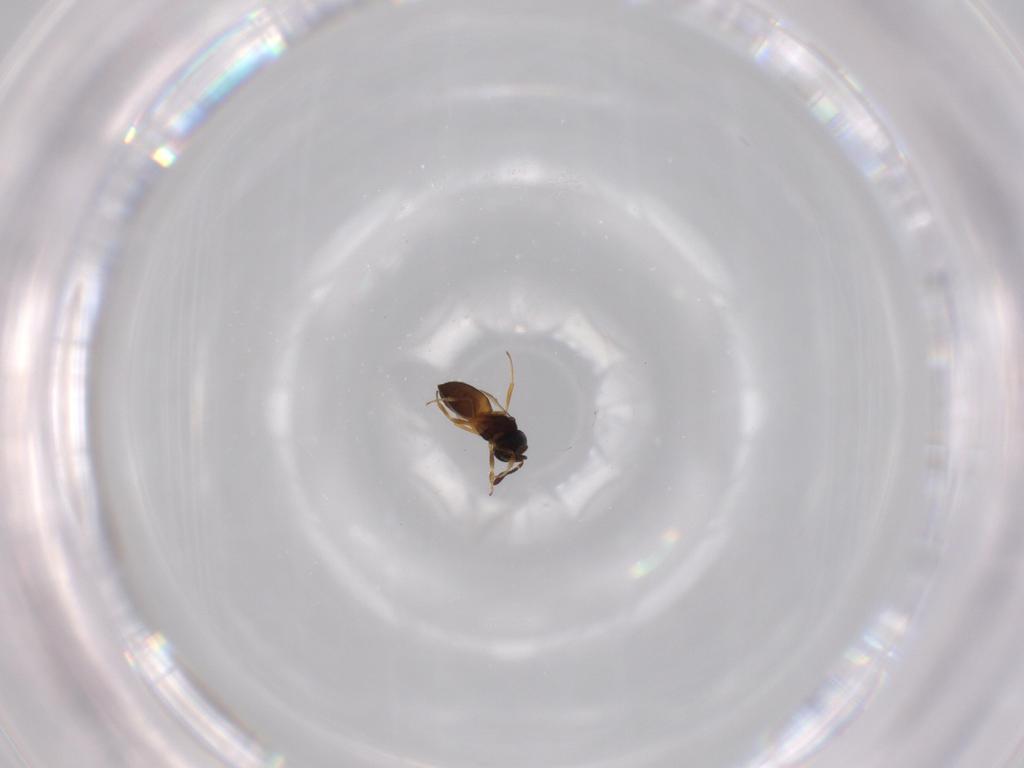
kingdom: Animalia
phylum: Arthropoda
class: Insecta
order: Hymenoptera
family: Scelionidae
